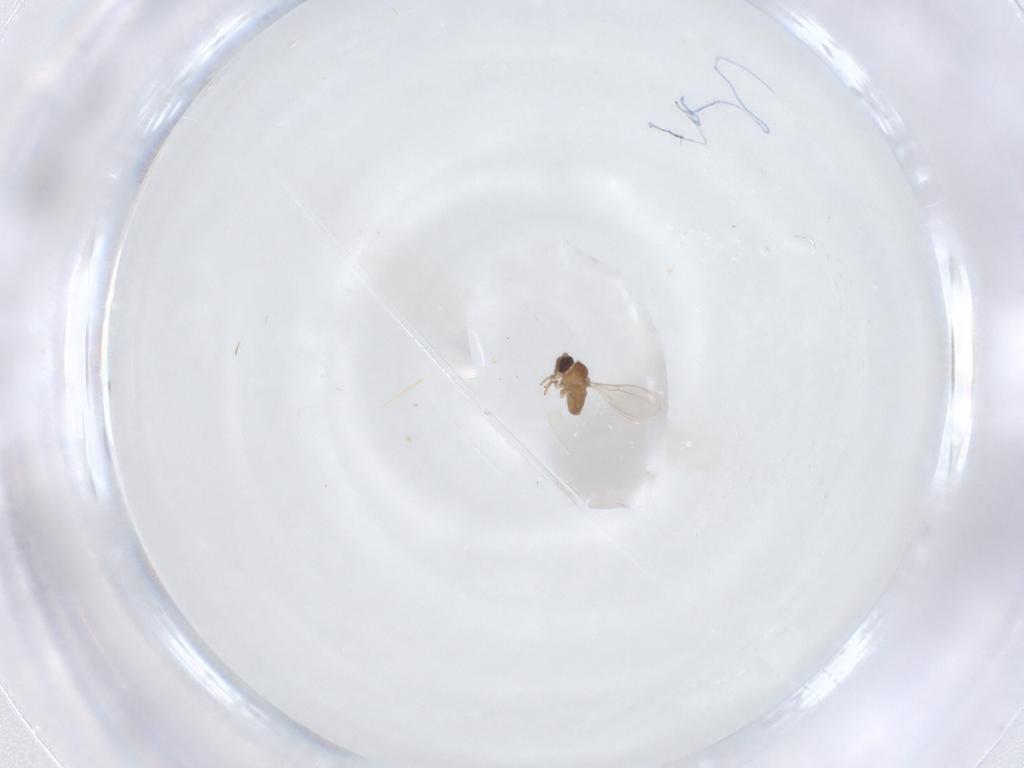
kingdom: Animalia
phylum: Arthropoda
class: Insecta
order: Diptera
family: Cecidomyiidae
